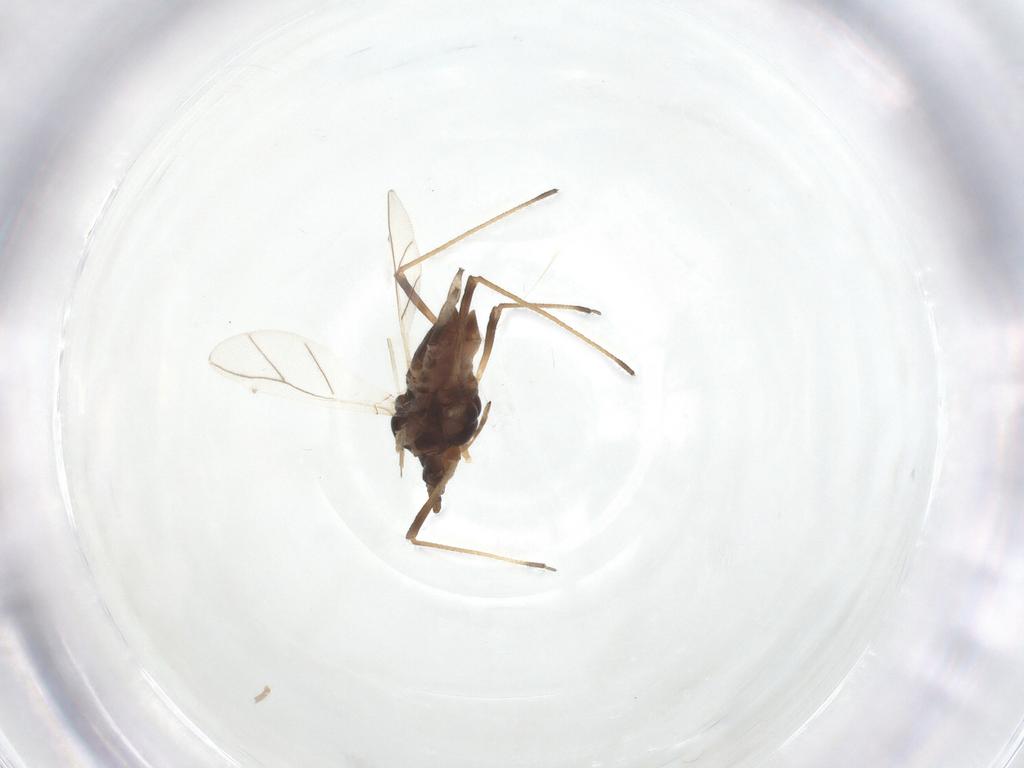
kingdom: Animalia
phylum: Arthropoda
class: Insecta
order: Hemiptera
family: Aphididae
